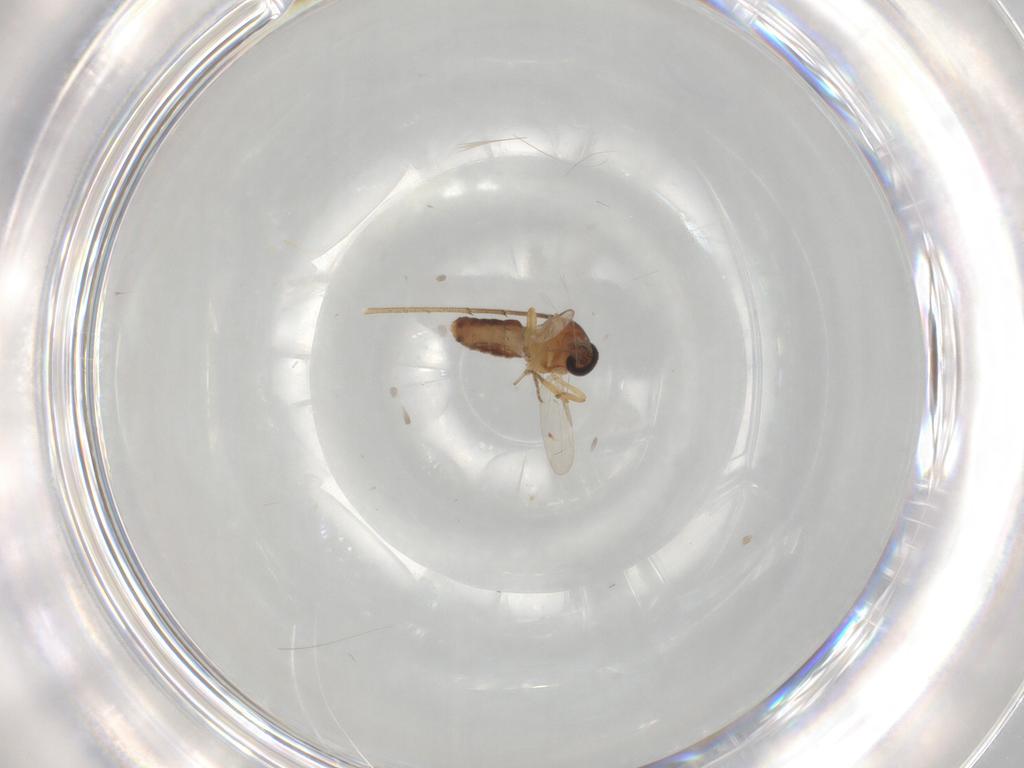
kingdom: Animalia
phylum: Arthropoda
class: Insecta
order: Diptera
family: Ceratopogonidae
